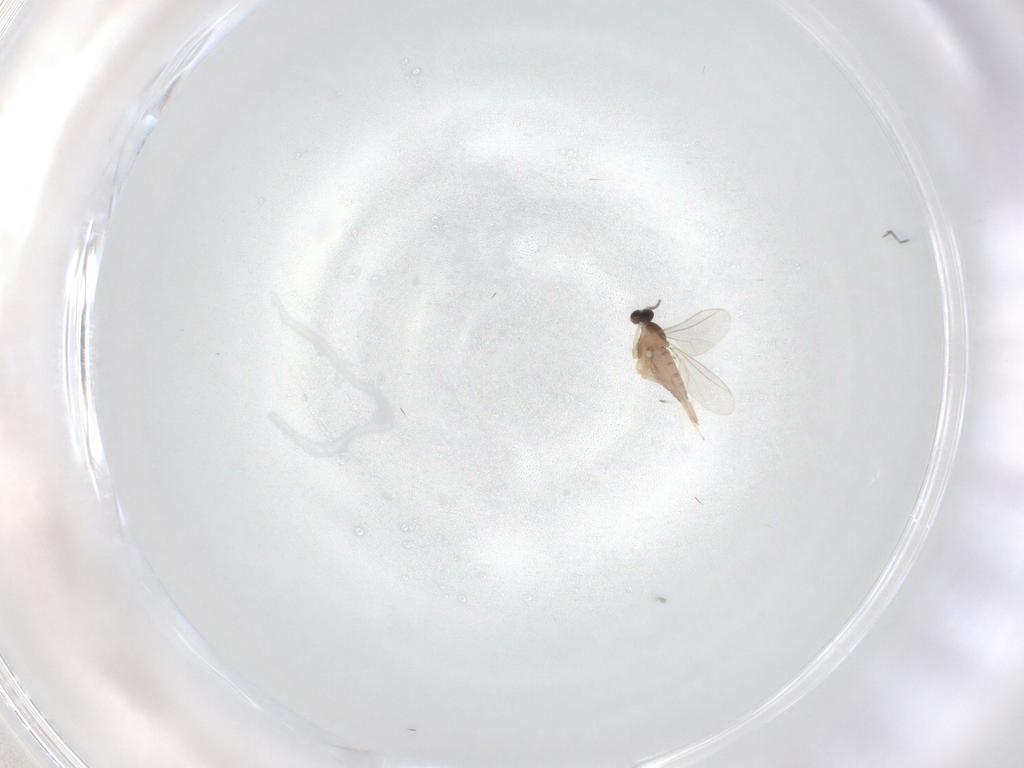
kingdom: Animalia
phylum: Arthropoda
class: Insecta
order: Diptera
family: Cecidomyiidae
